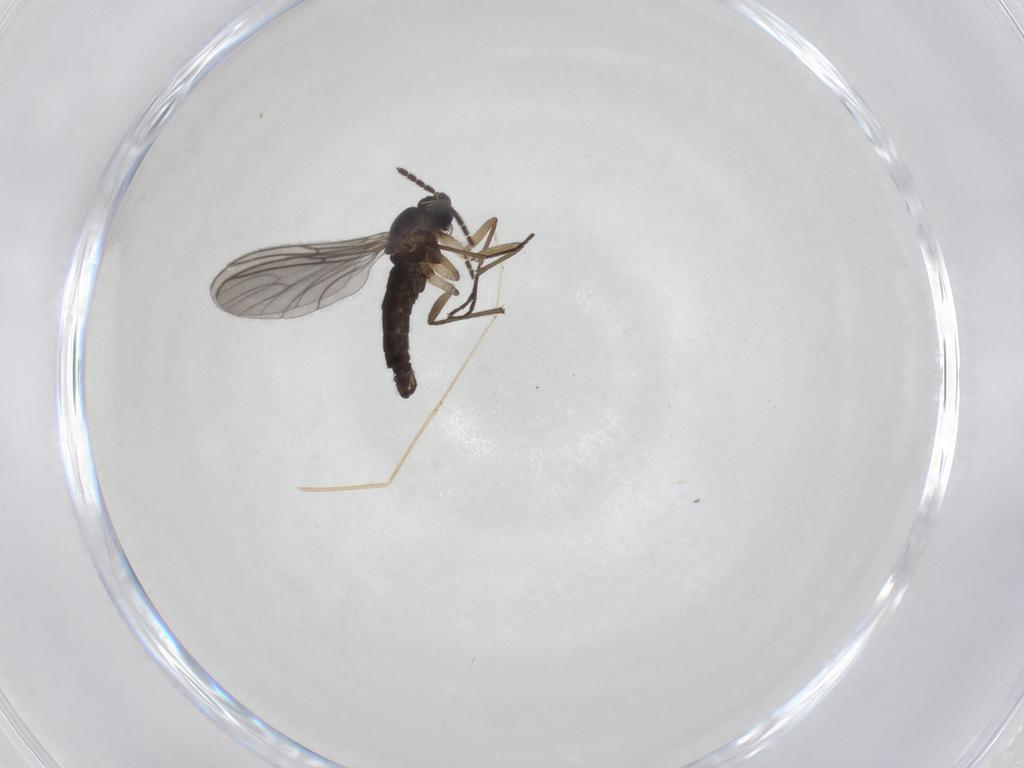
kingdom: Animalia
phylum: Arthropoda
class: Insecta
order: Diptera
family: Sciaridae
